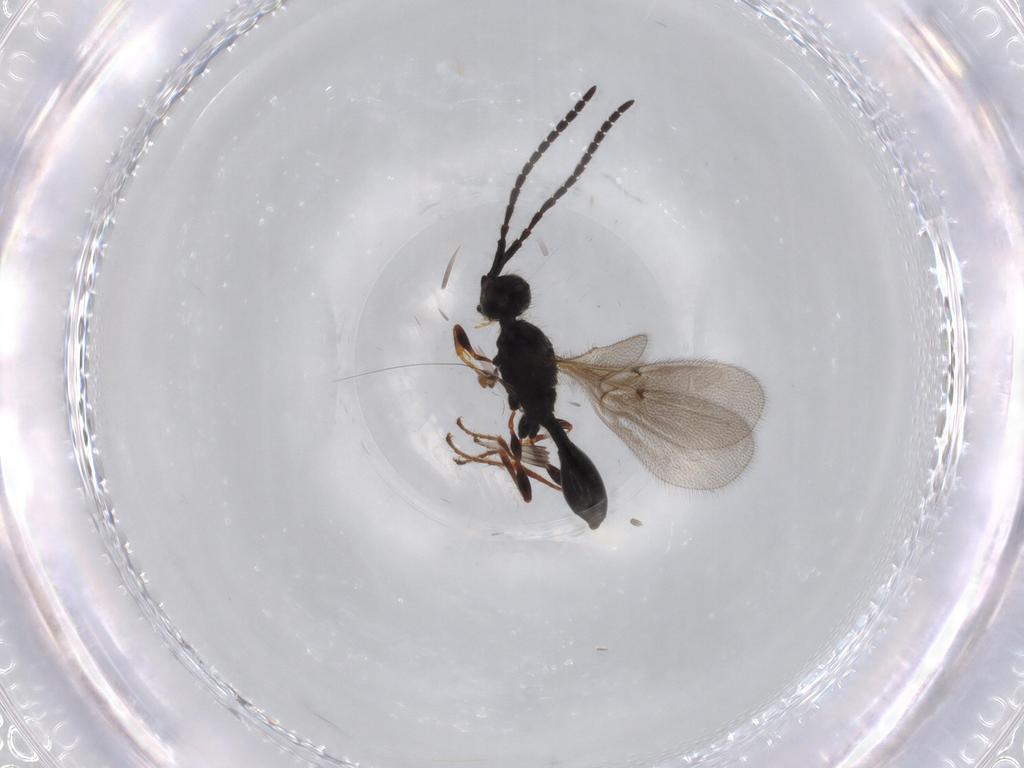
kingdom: Animalia
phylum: Arthropoda
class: Insecta
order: Hymenoptera
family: Diapriidae
